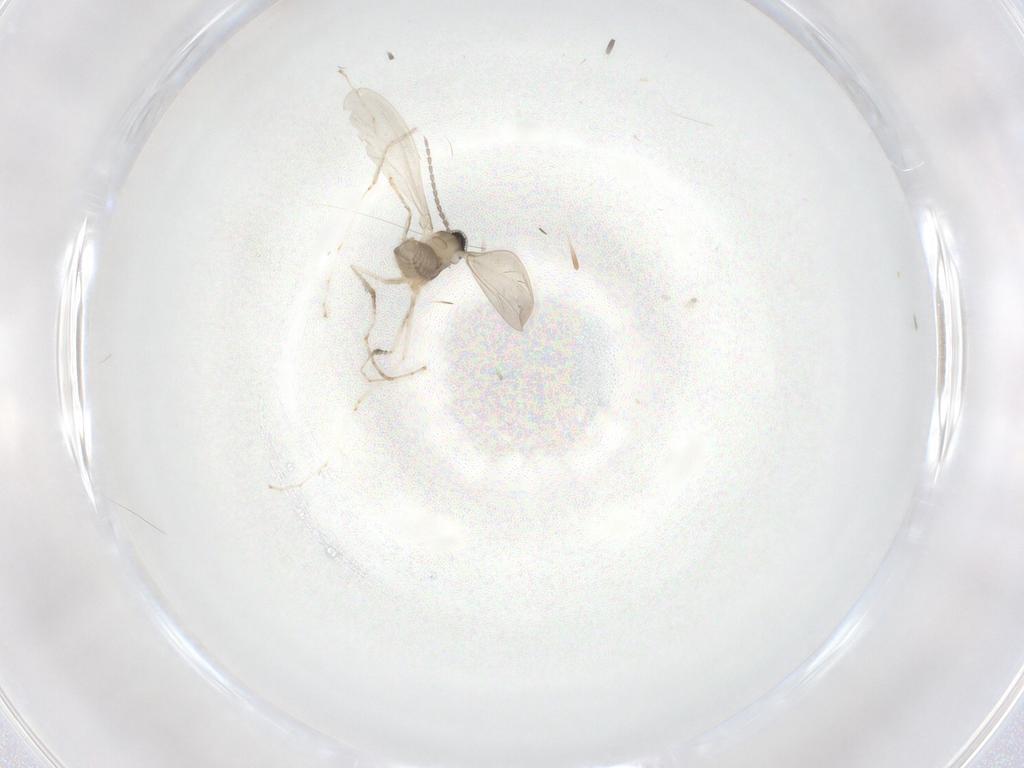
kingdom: Animalia
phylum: Arthropoda
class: Insecta
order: Diptera
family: Cecidomyiidae
